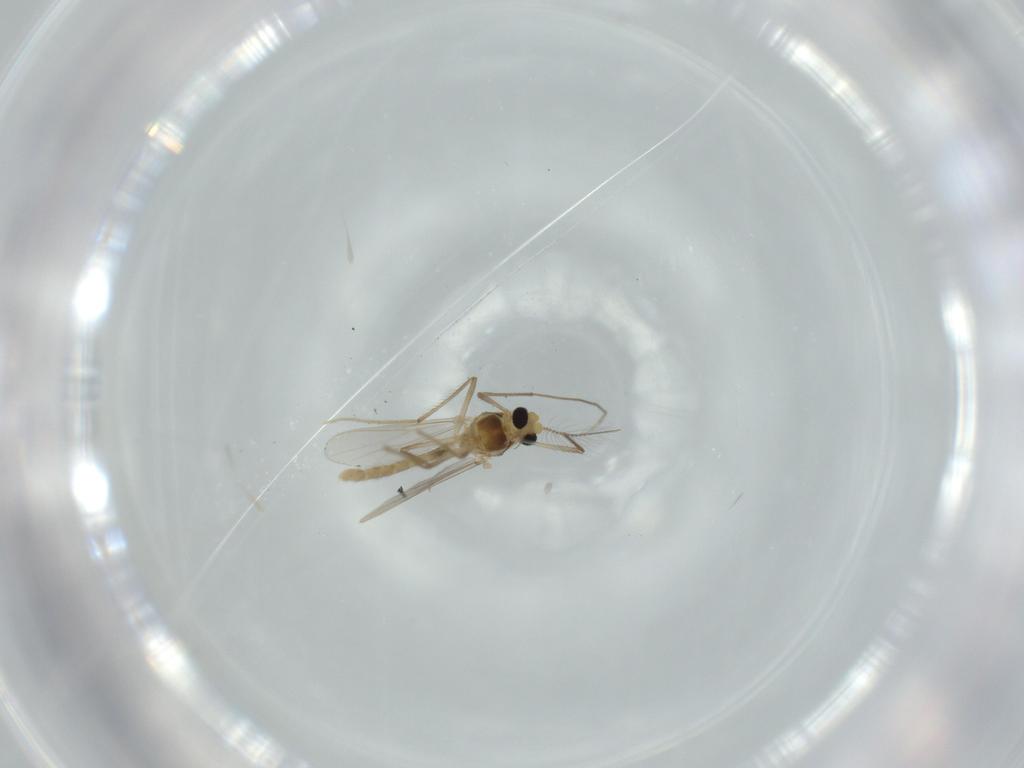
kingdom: Animalia
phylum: Arthropoda
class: Insecta
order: Diptera
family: Chironomidae
